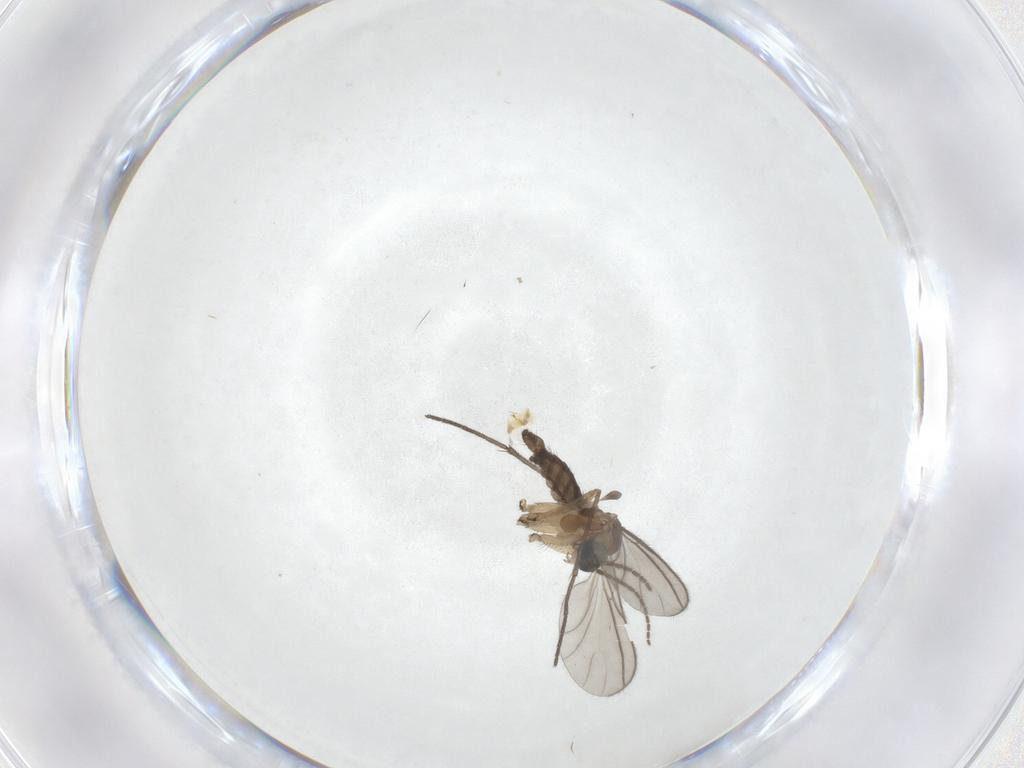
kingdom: Animalia
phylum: Arthropoda
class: Insecta
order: Diptera
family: Sciaridae
